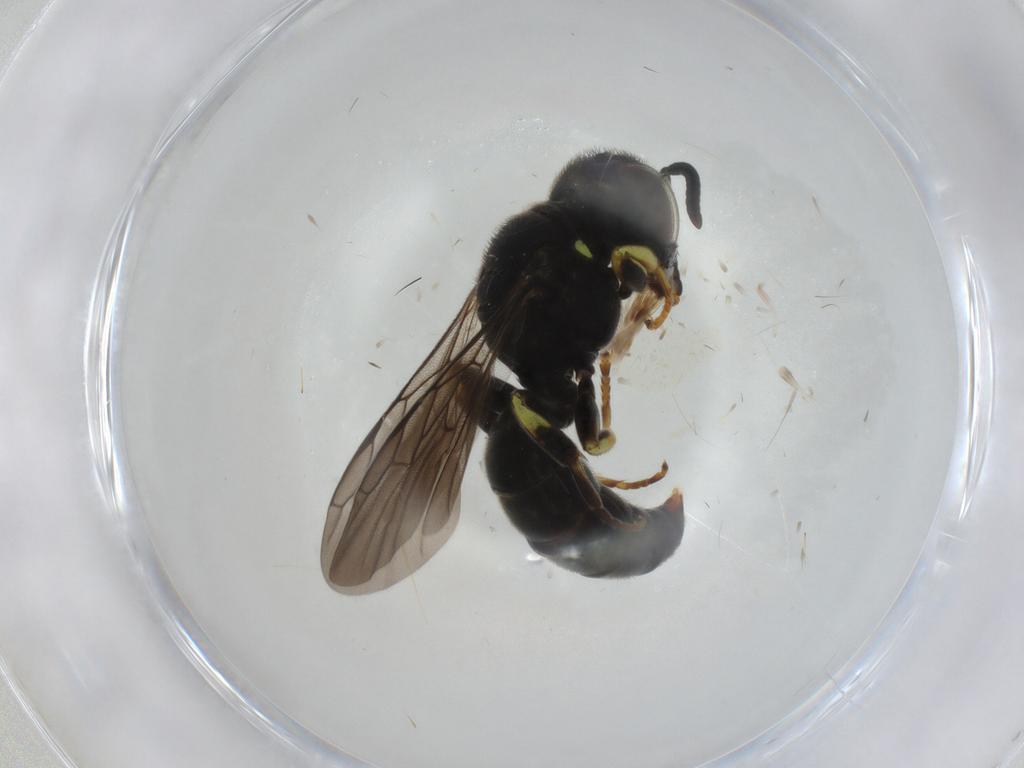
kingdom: Animalia
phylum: Arthropoda
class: Insecta
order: Hymenoptera
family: Crabronidae
